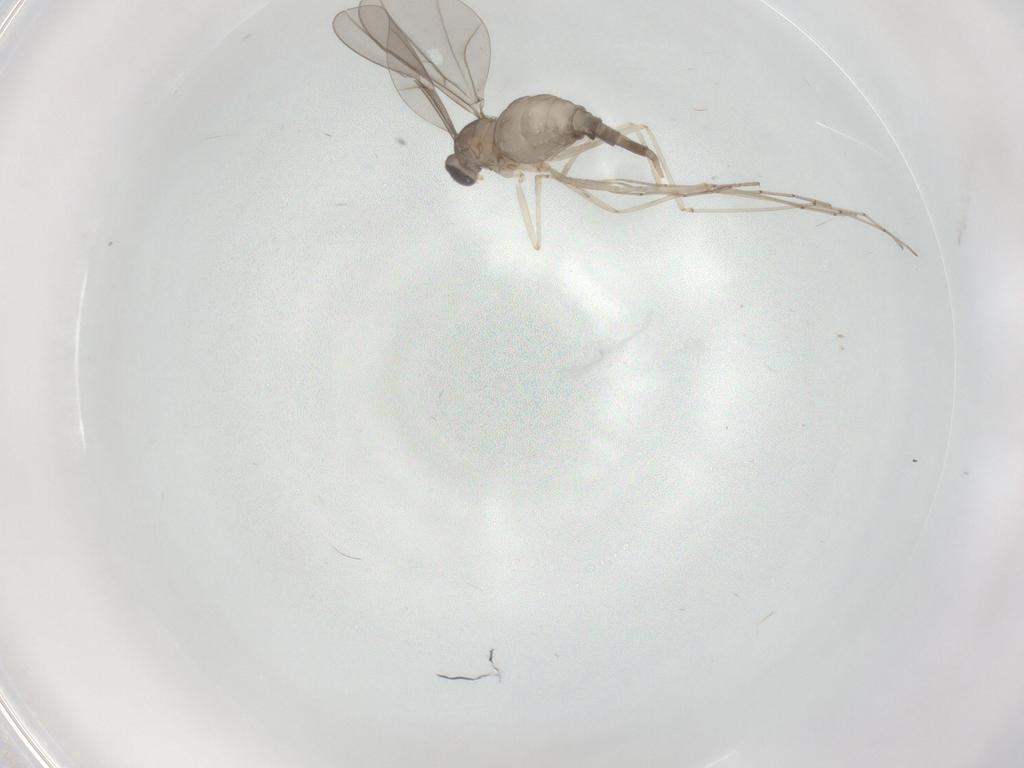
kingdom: Animalia
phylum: Arthropoda
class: Insecta
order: Diptera
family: Cecidomyiidae
